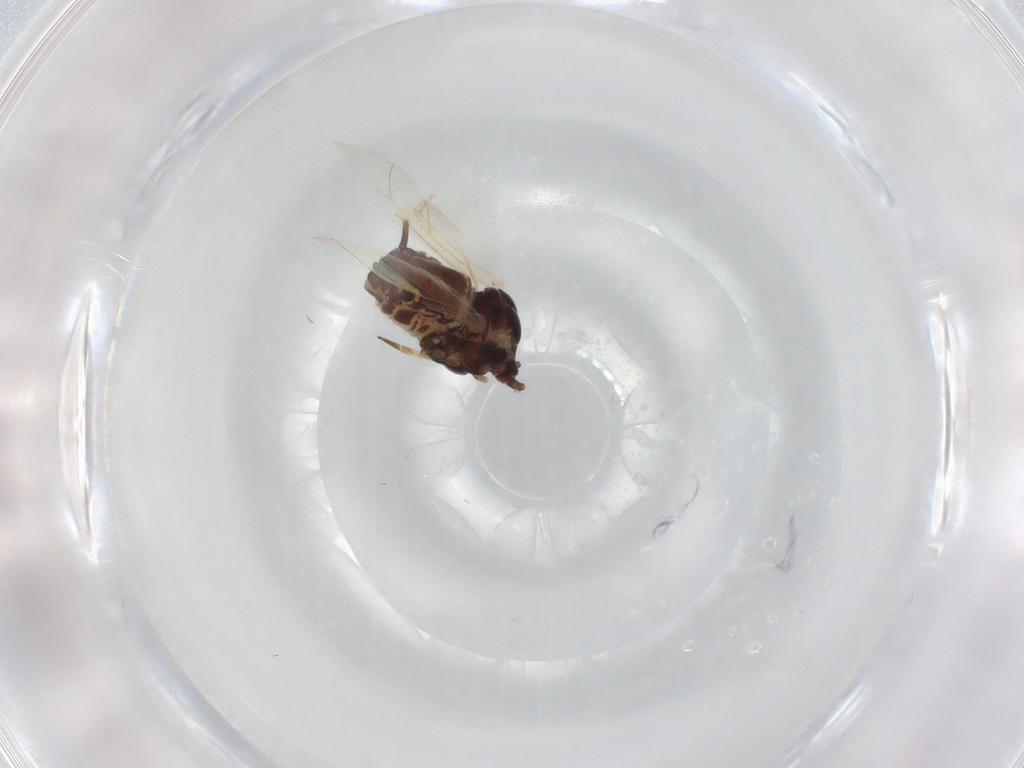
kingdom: Animalia
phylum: Arthropoda
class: Insecta
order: Hemiptera
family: Aphididae
